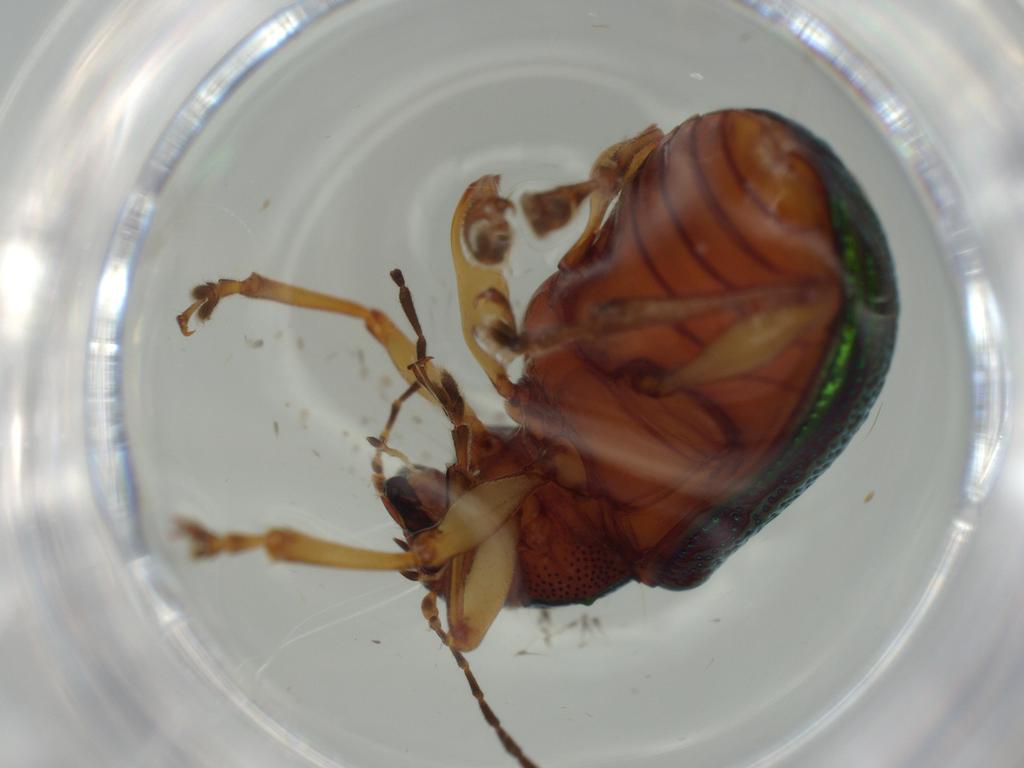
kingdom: Animalia
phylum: Arthropoda
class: Insecta
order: Coleoptera
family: Chrysomelidae
